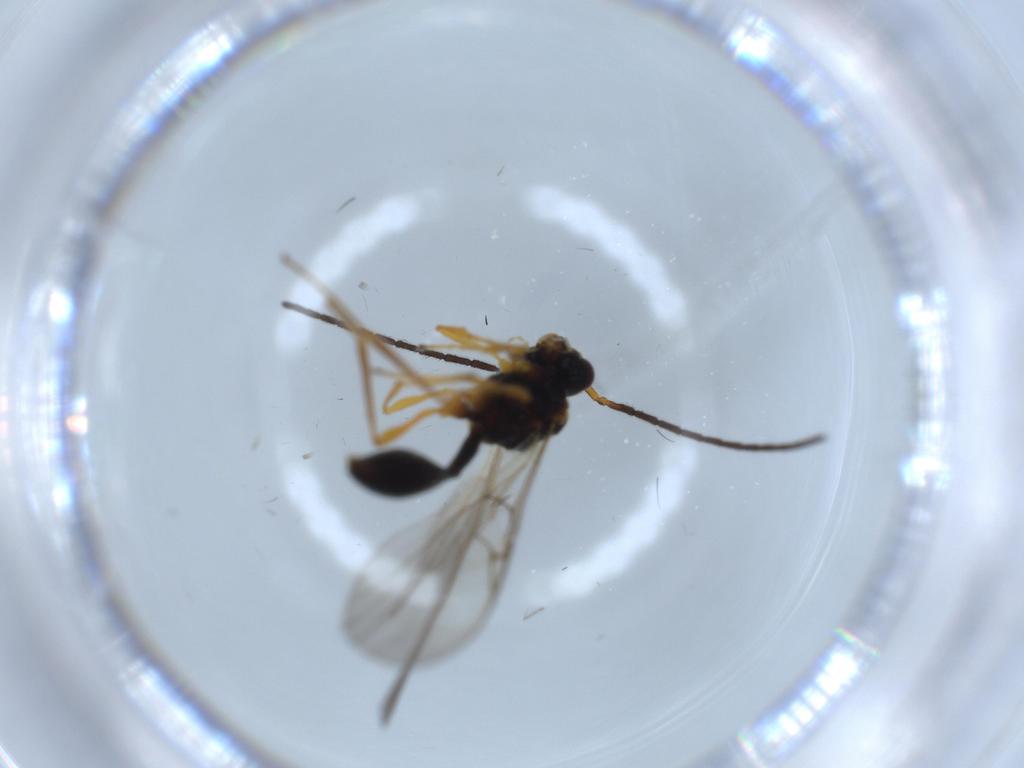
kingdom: Animalia
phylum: Arthropoda
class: Insecta
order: Hymenoptera
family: Diapriidae
